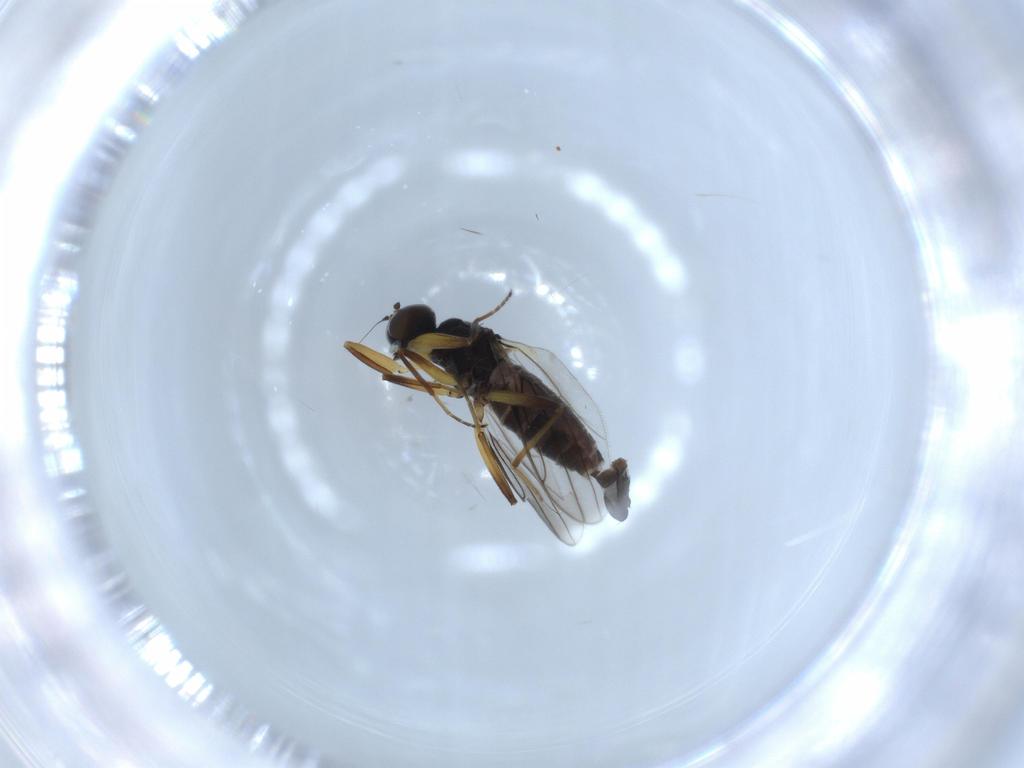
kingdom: Animalia
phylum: Arthropoda
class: Insecta
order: Diptera
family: Hybotidae
